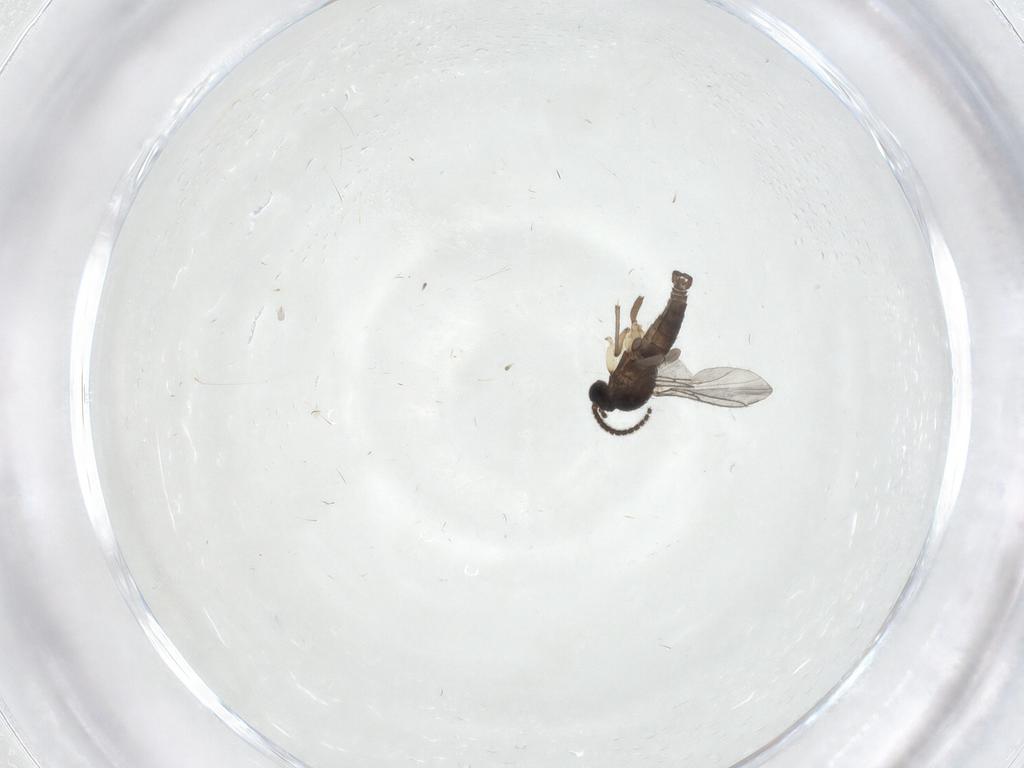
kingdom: Animalia
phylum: Arthropoda
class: Insecta
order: Diptera
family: Sciaridae
